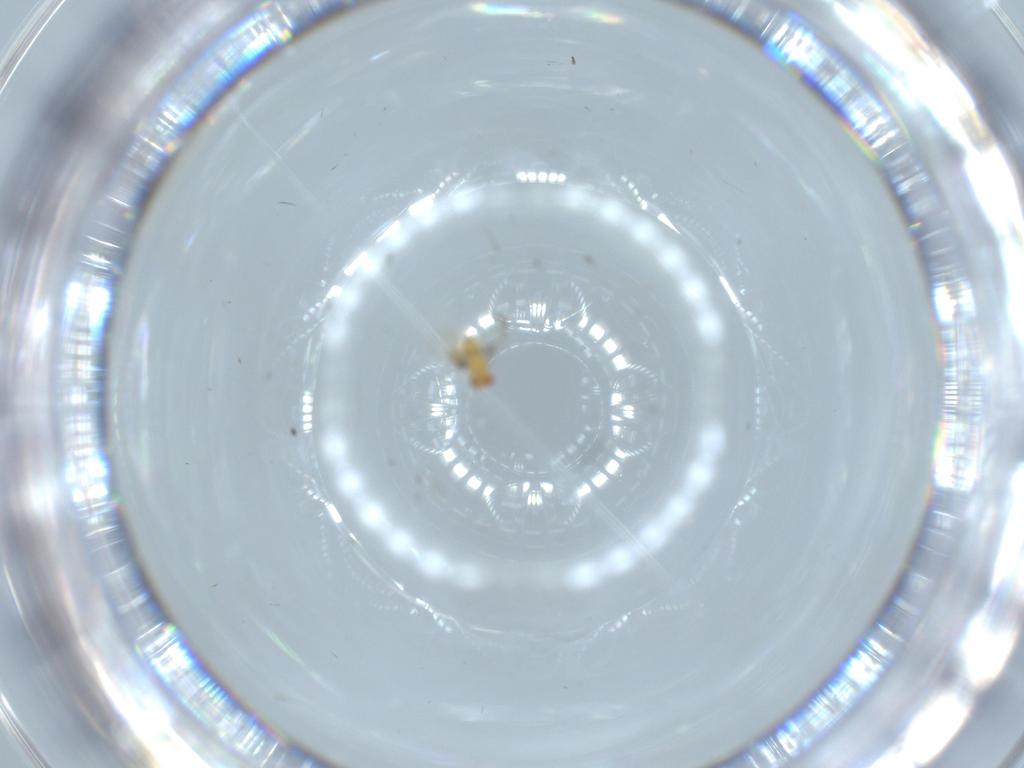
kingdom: Animalia
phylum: Arthropoda
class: Insecta
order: Hymenoptera
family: Trichogrammatidae
